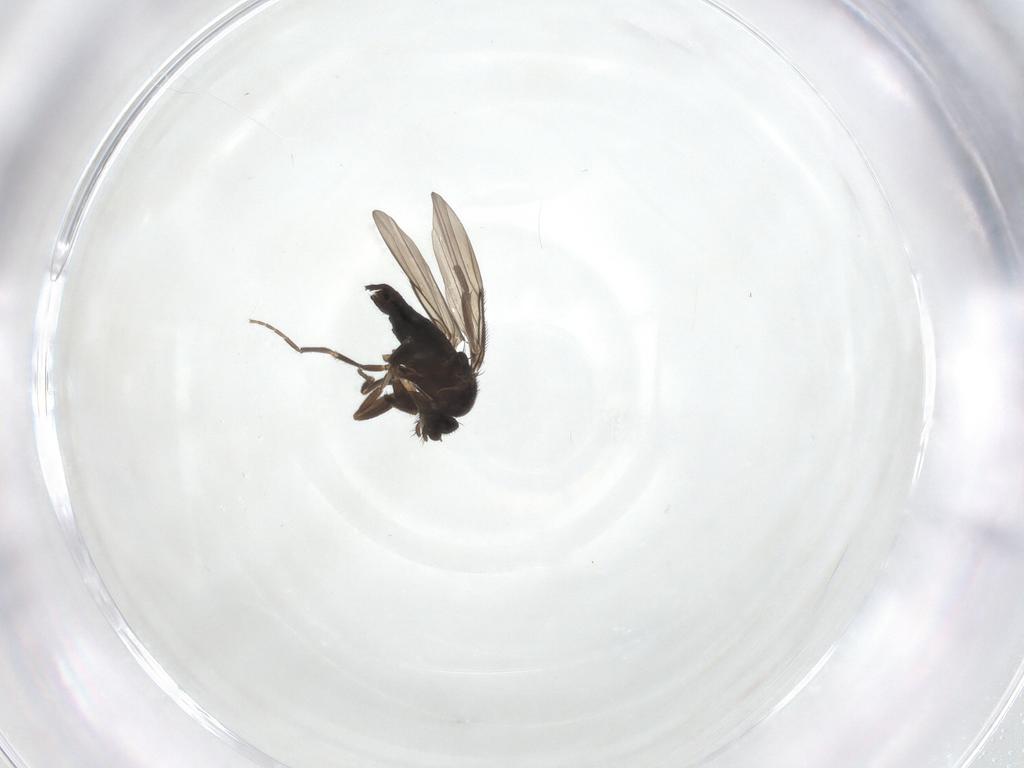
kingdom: Animalia
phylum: Arthropoda
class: Insecta
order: Diptera
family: Phoridae
